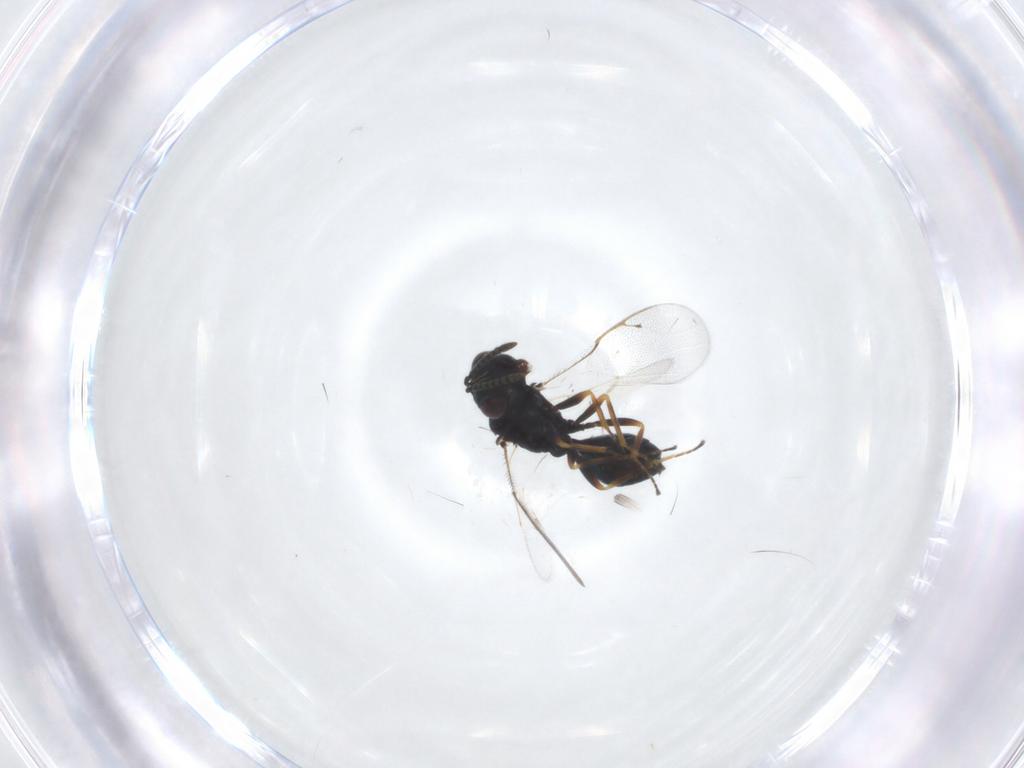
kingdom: Animalia
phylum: Arthropoda
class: Insecta
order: Hymenoptera
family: Pteromalidae
